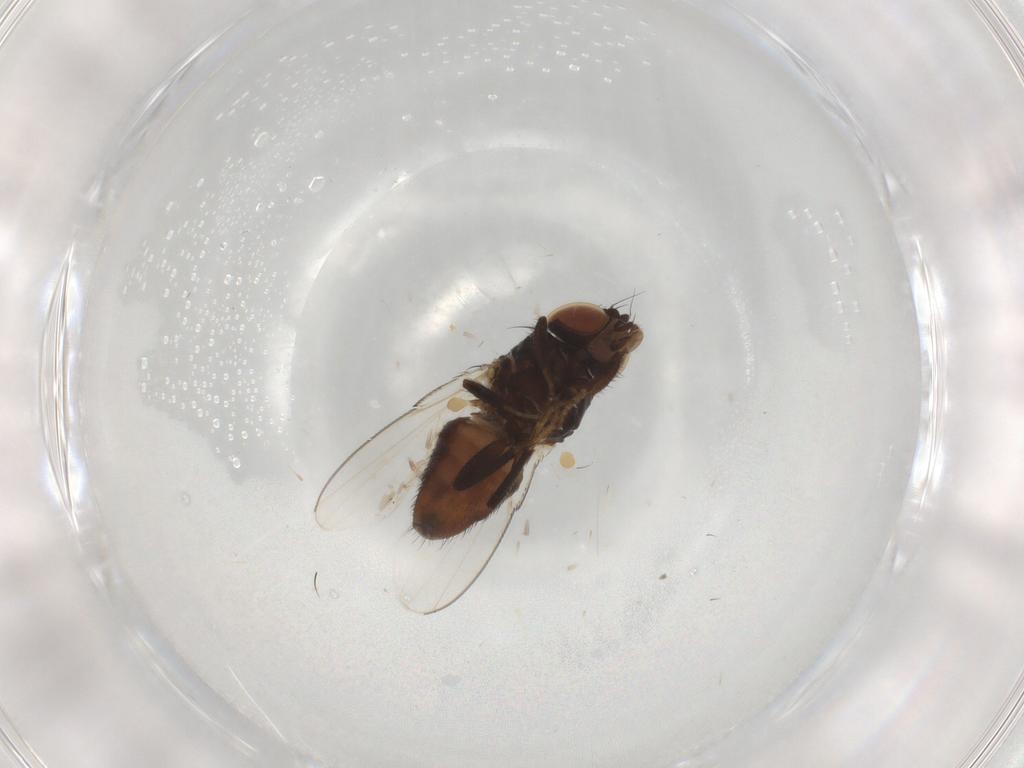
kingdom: Animalia
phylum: Arthropoda
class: Insecta
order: Diptera
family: Milichiidae
